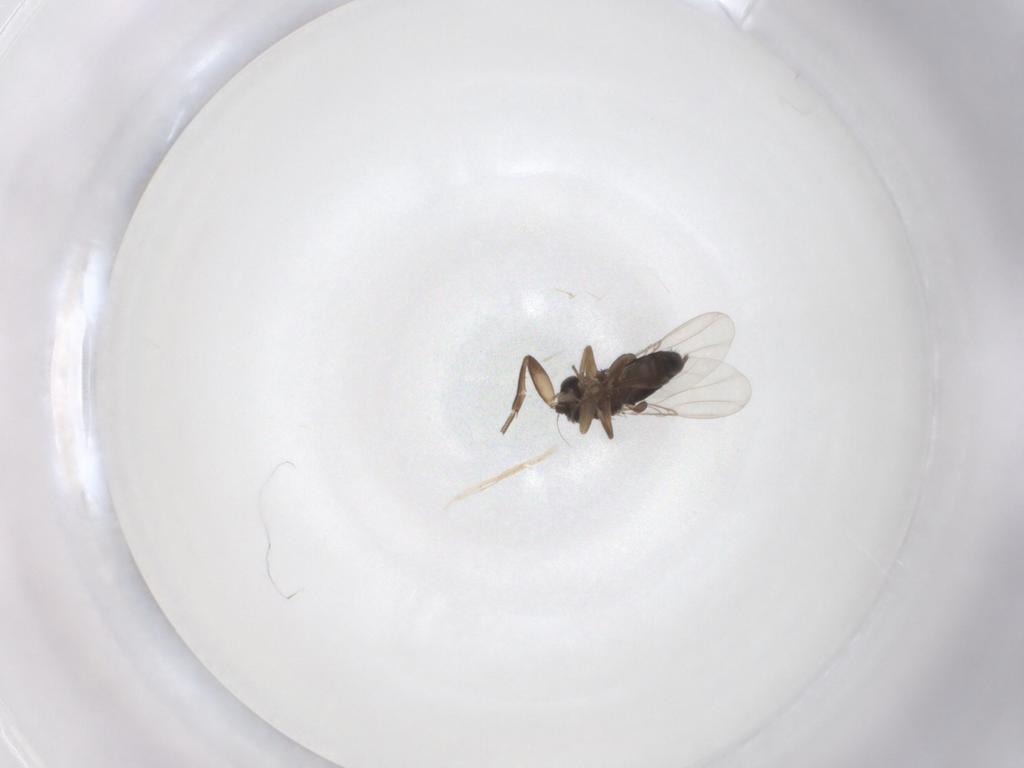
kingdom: Animalia
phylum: Arthropoda
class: Insecta
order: Diptera
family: Phoridae
